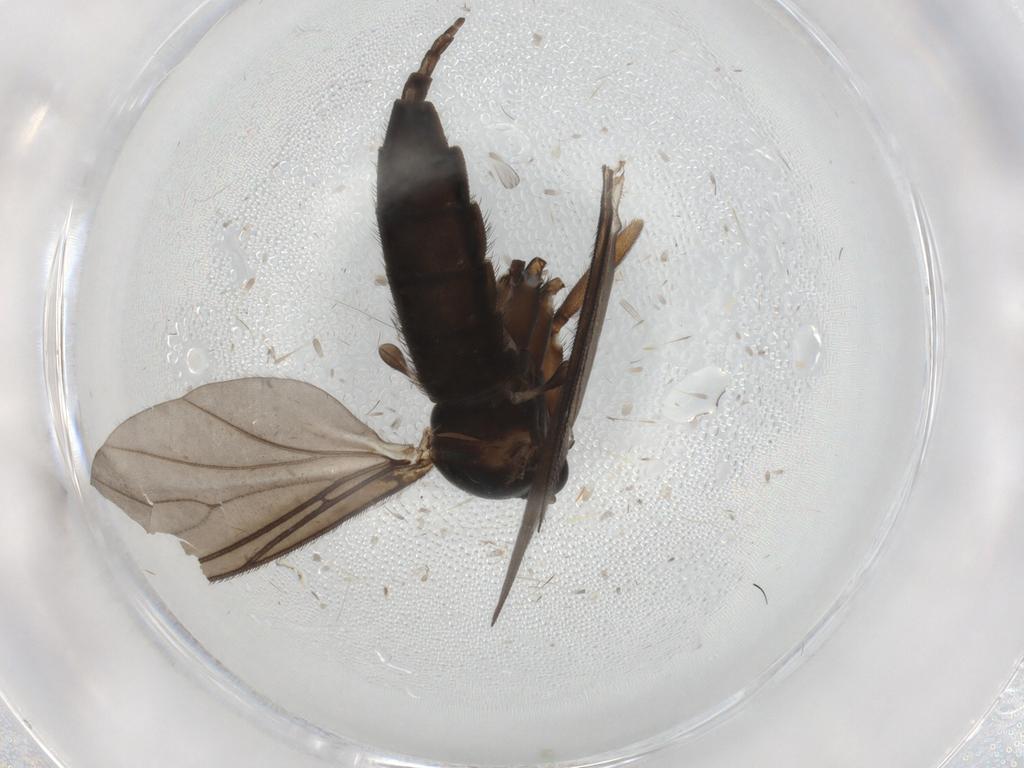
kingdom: Animalia
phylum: Arthropoda
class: Insecta
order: Diptera
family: Sciaridae
